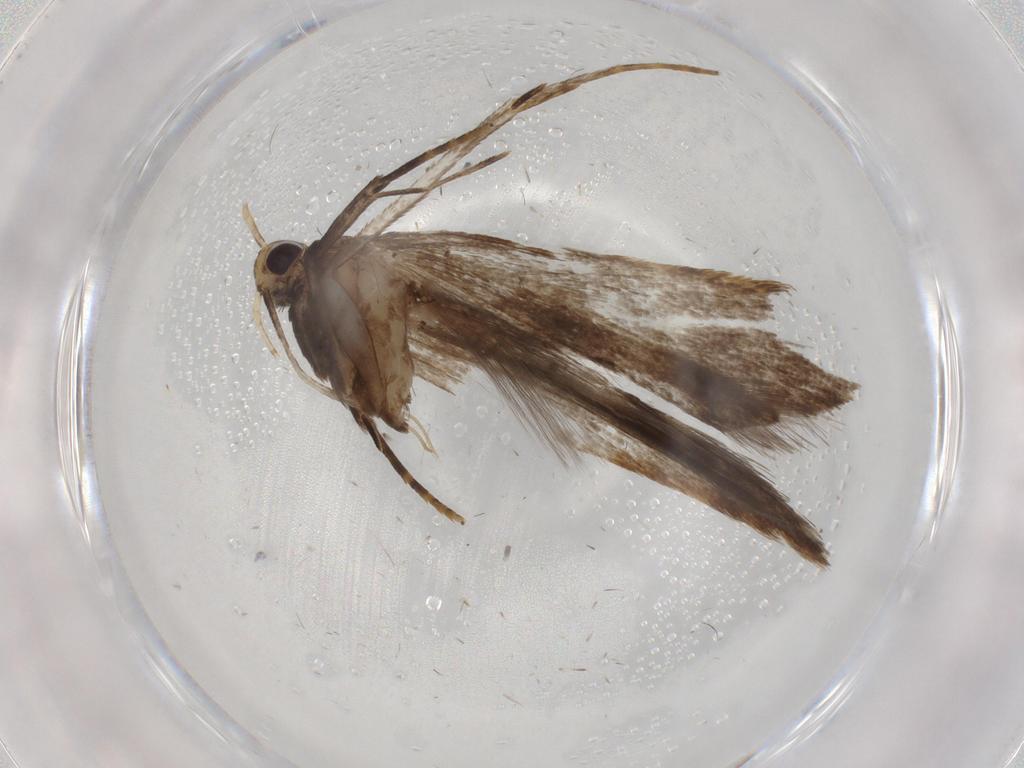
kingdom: Animalia
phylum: Arthropoda
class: Insecta
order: Lepidoptera
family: Gelechiidae
